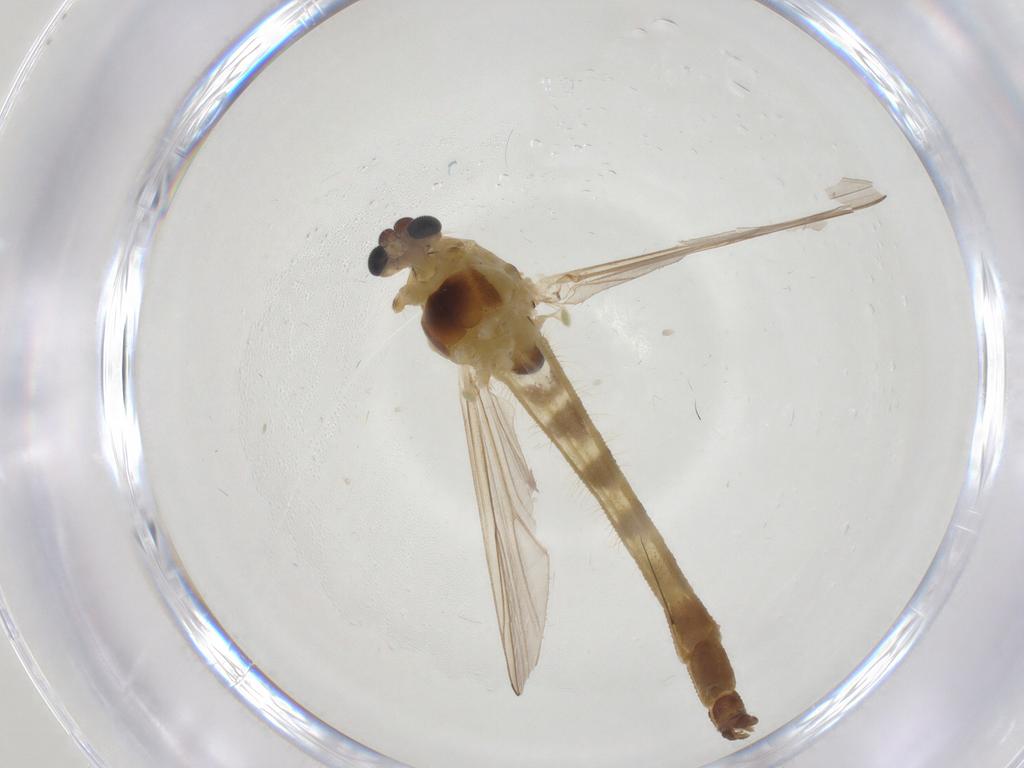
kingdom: Animalia
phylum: Arthropoda
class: Insecta
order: Diptera
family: Chironomidae
